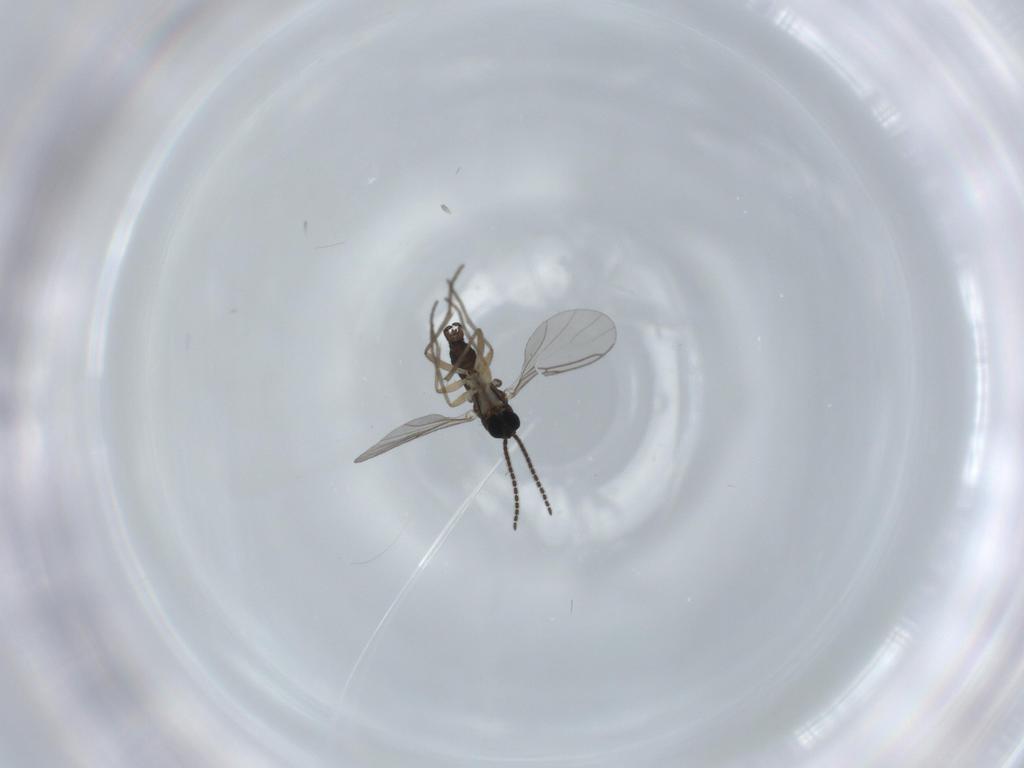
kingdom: Animalia
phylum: Arthropoda
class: Insecta
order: Diptera
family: Sciaridae
